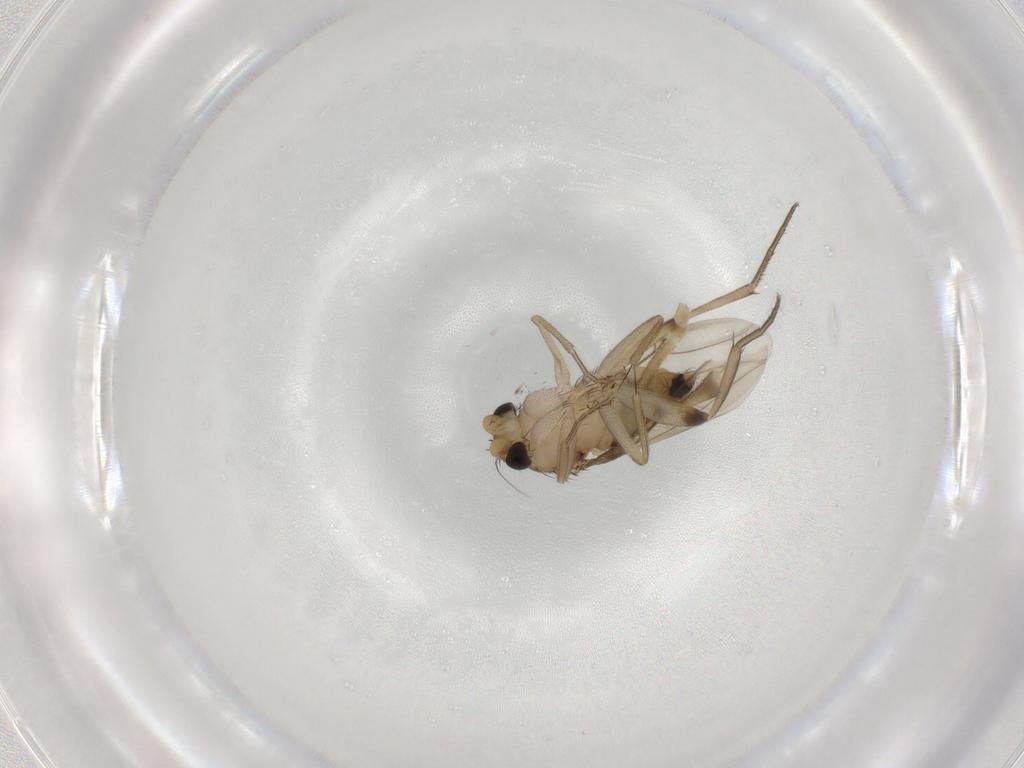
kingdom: Animalia
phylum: Arthropoda
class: Insecta
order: Diptera
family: Phoridae
